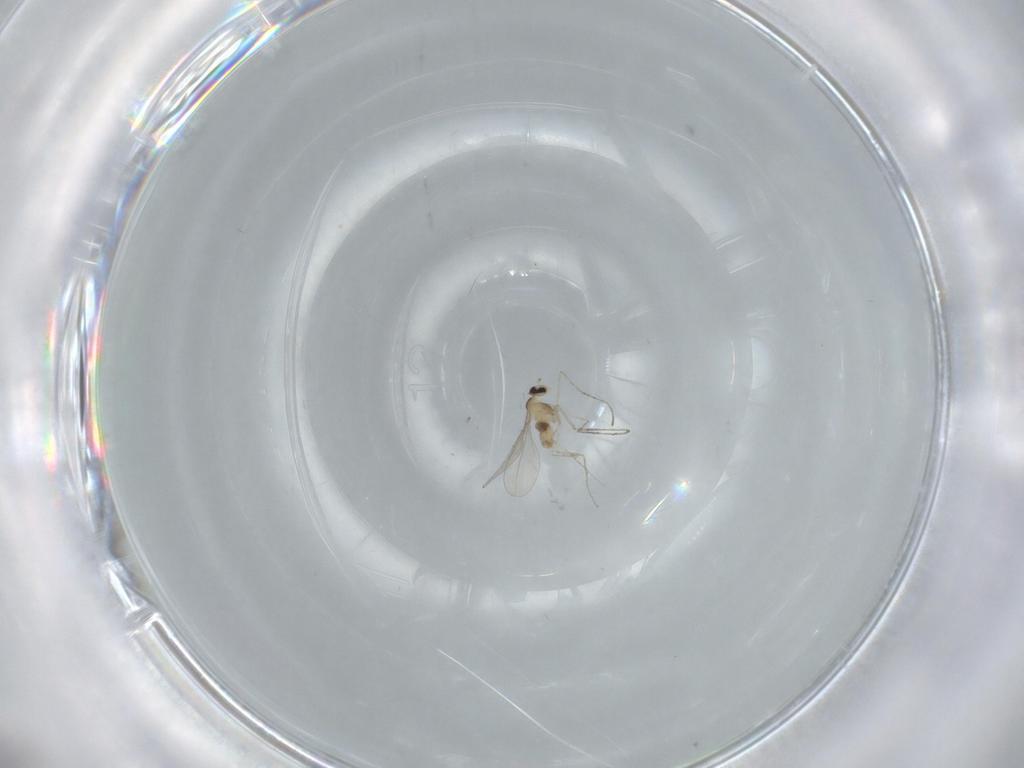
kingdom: Animalia
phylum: Arthropoda
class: Insecta
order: Diptera
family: Cecidomyiidae
